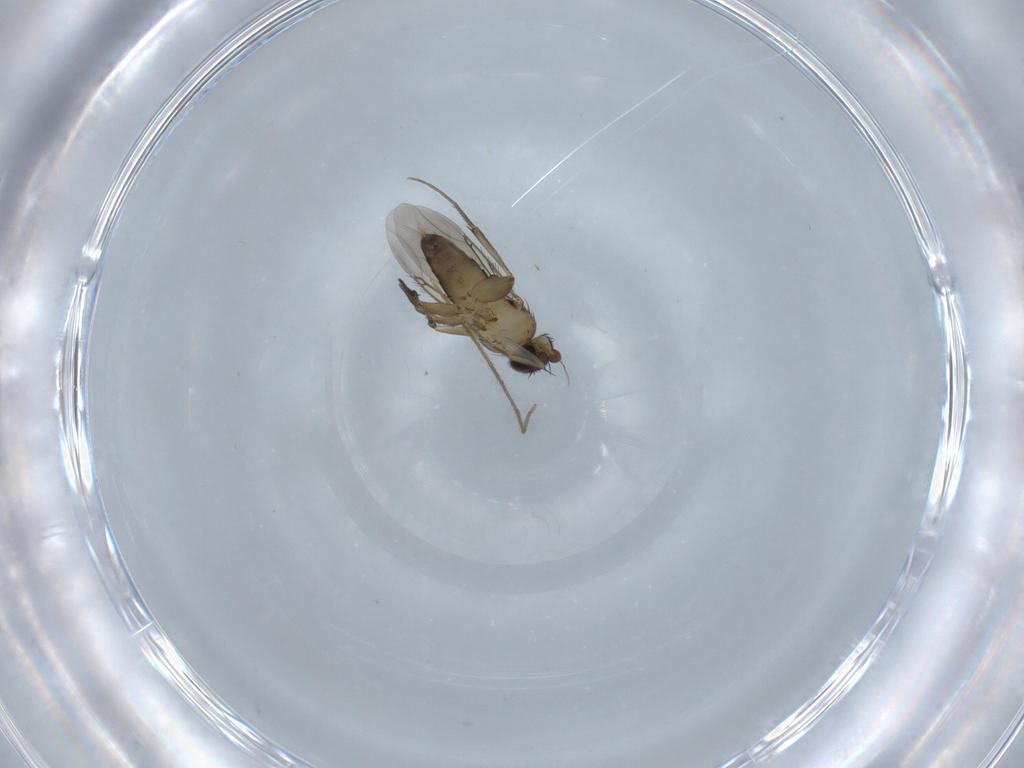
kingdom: Animalia
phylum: Arthropoda
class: Insecta
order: Diptera
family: Phoridae
